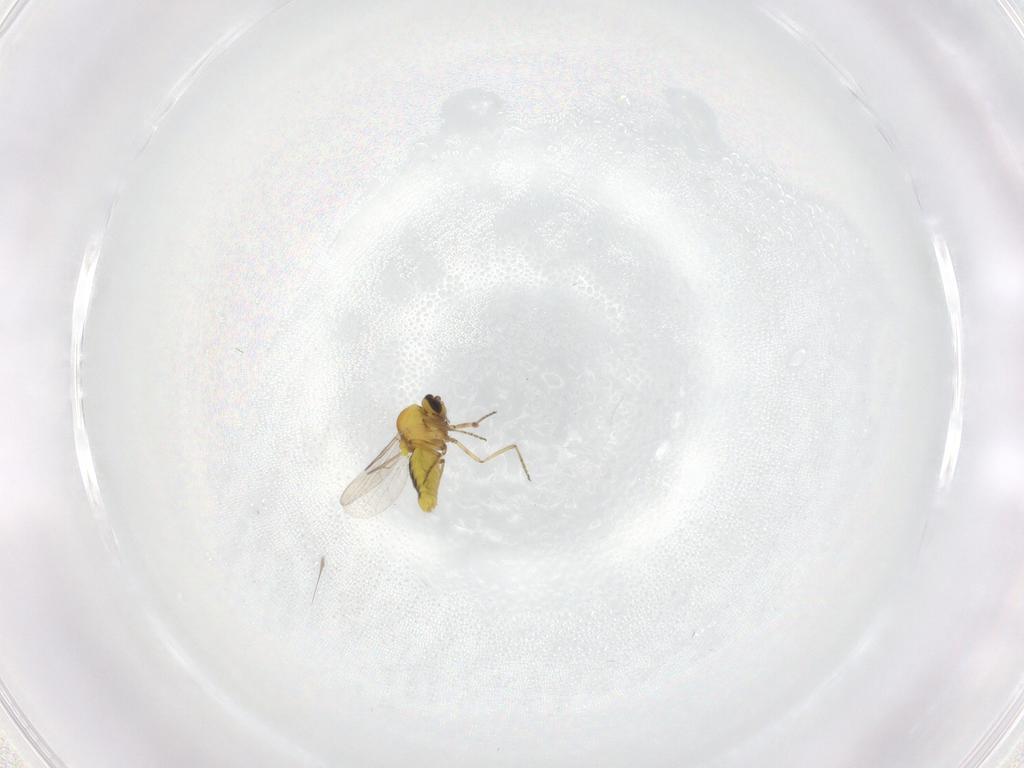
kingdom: Animalia
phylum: Arthropoda
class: Insecta
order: Diptera
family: Ceratopogonidae
